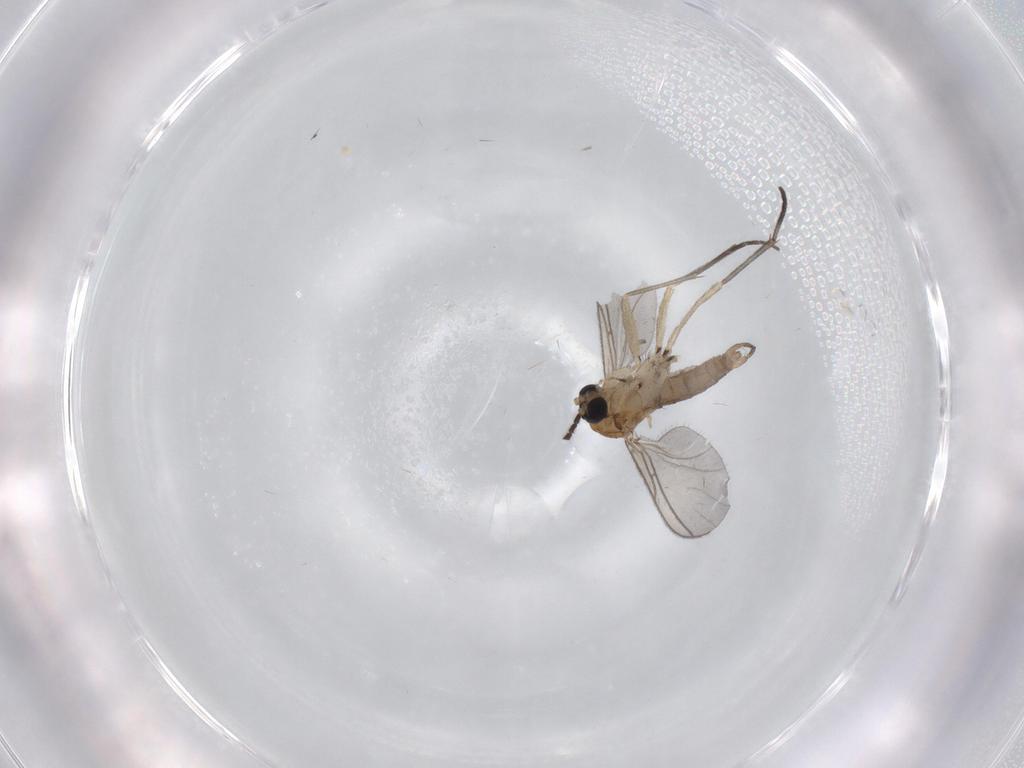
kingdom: Animalia
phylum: Arthropoda
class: Insecta
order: Diptera
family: Sciaridae
